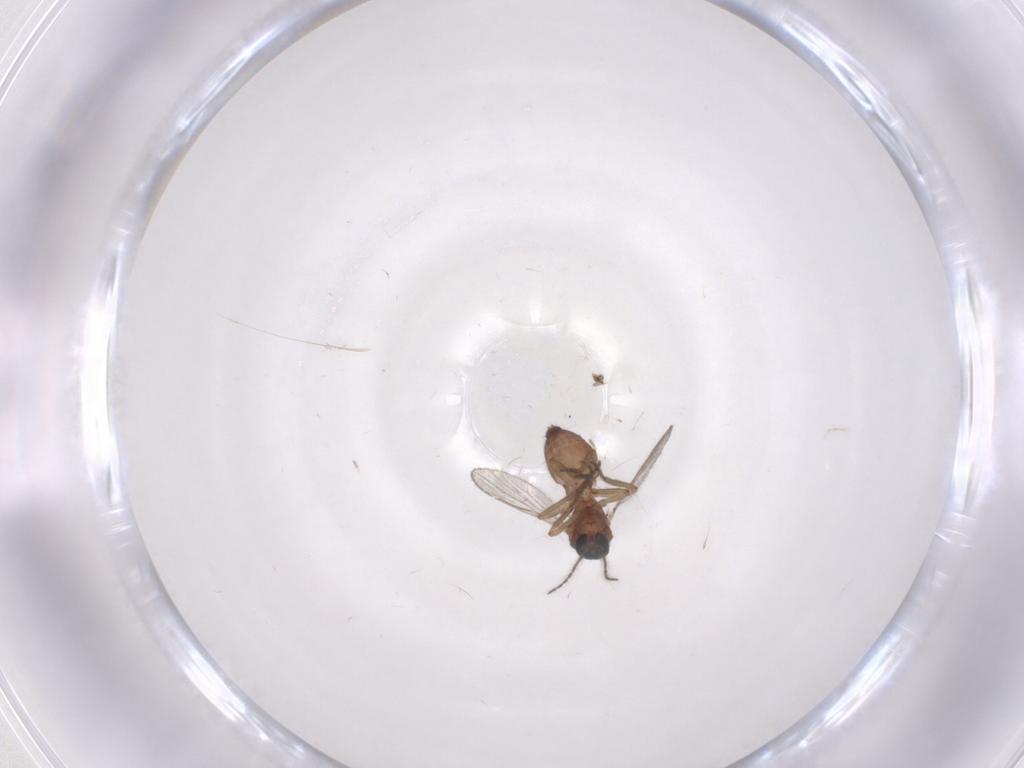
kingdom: Animalia
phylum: Arthropoda
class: Insecta
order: Diptera
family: Ceratopogonidae
